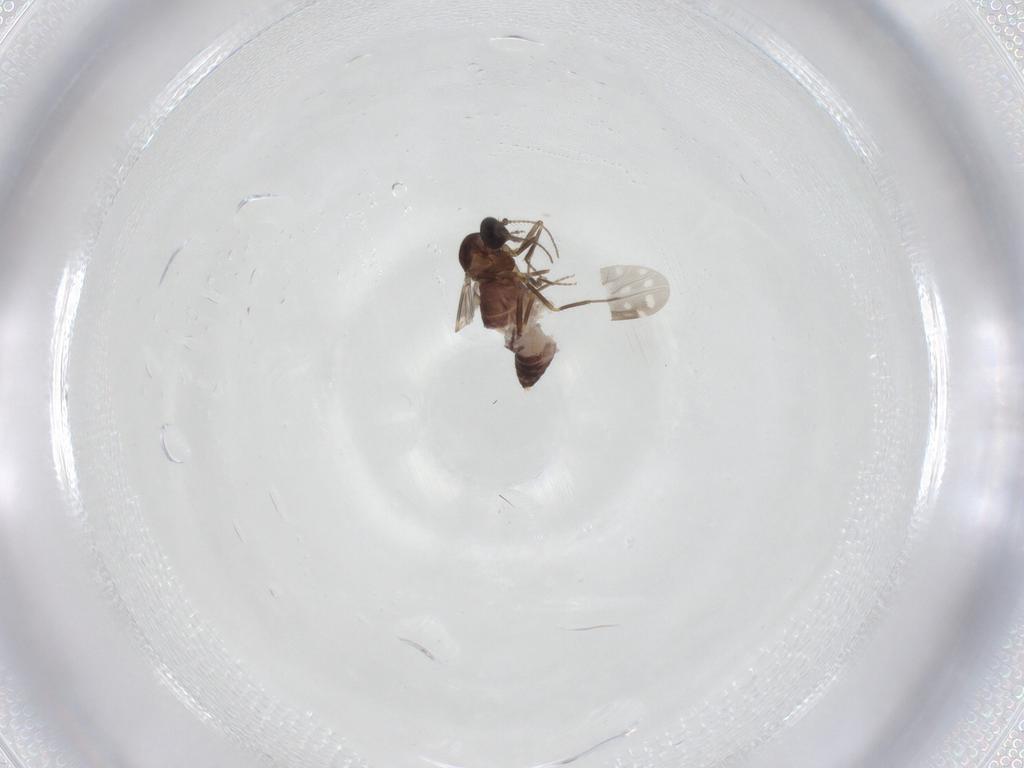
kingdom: Animalia
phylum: Arthropoda
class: Insecta
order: Diptera
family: Ceratopogonidae
